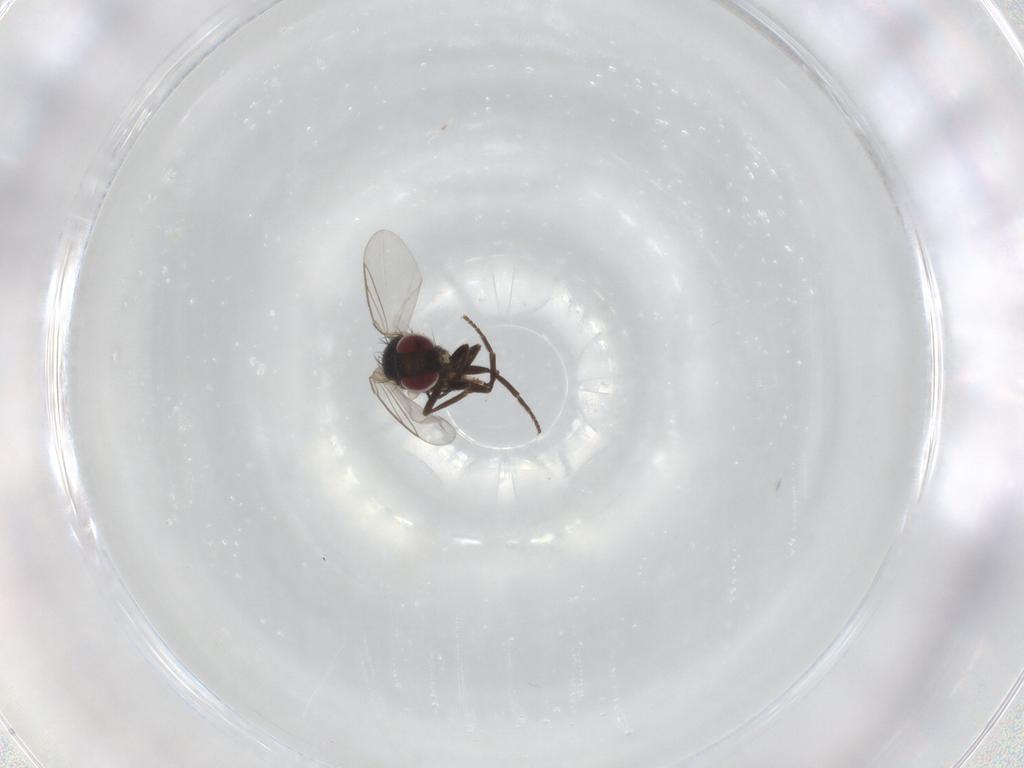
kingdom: Animalia
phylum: Arthropoda
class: Insecta
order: Diptera
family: Agromyzidae
